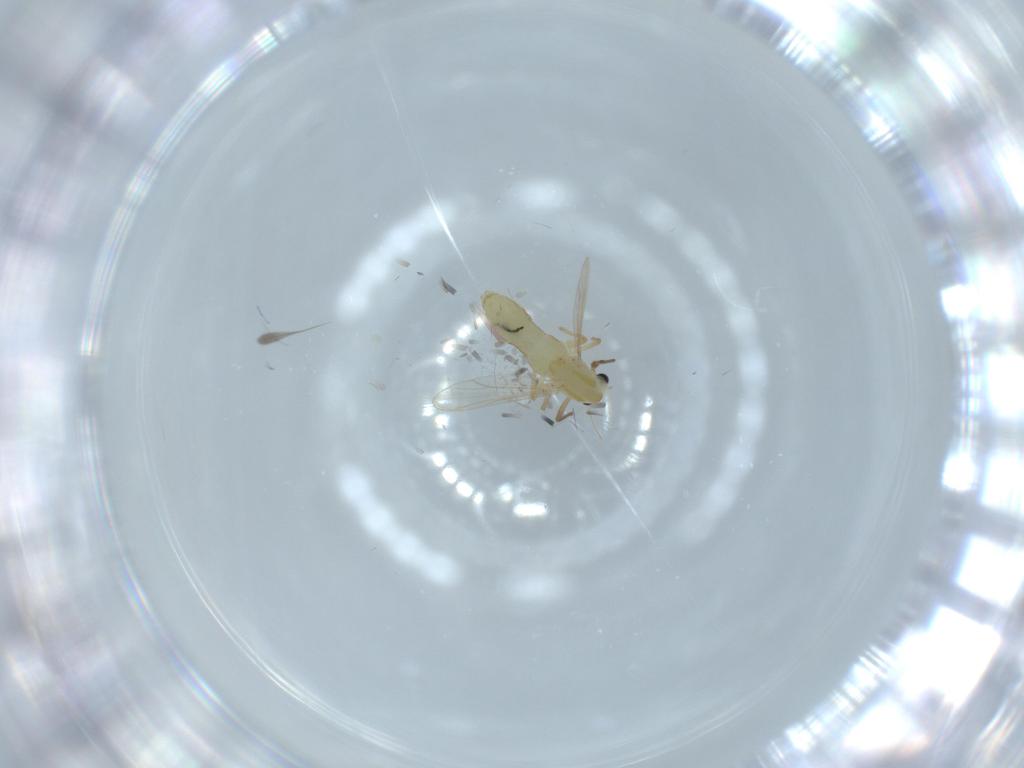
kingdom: Animalia
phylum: Arthropoda
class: Insecta
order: Diptera
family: Chironomidae
